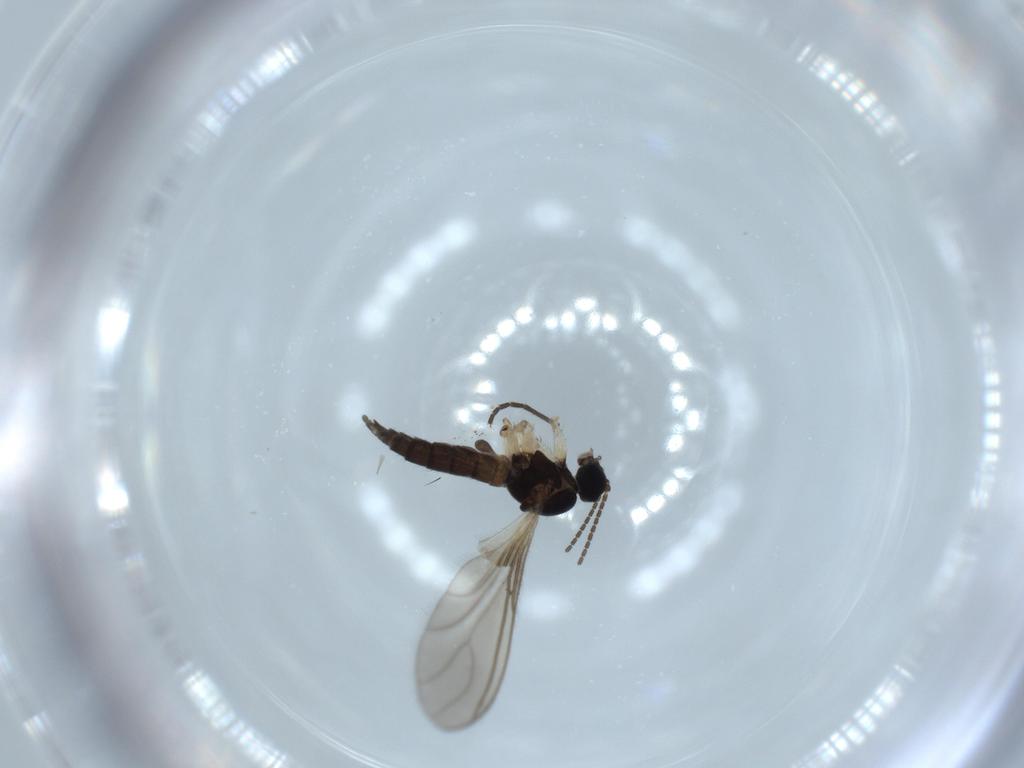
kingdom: Animalia
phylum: Arthropoda
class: Insecta
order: Diptera
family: Sciaridae
